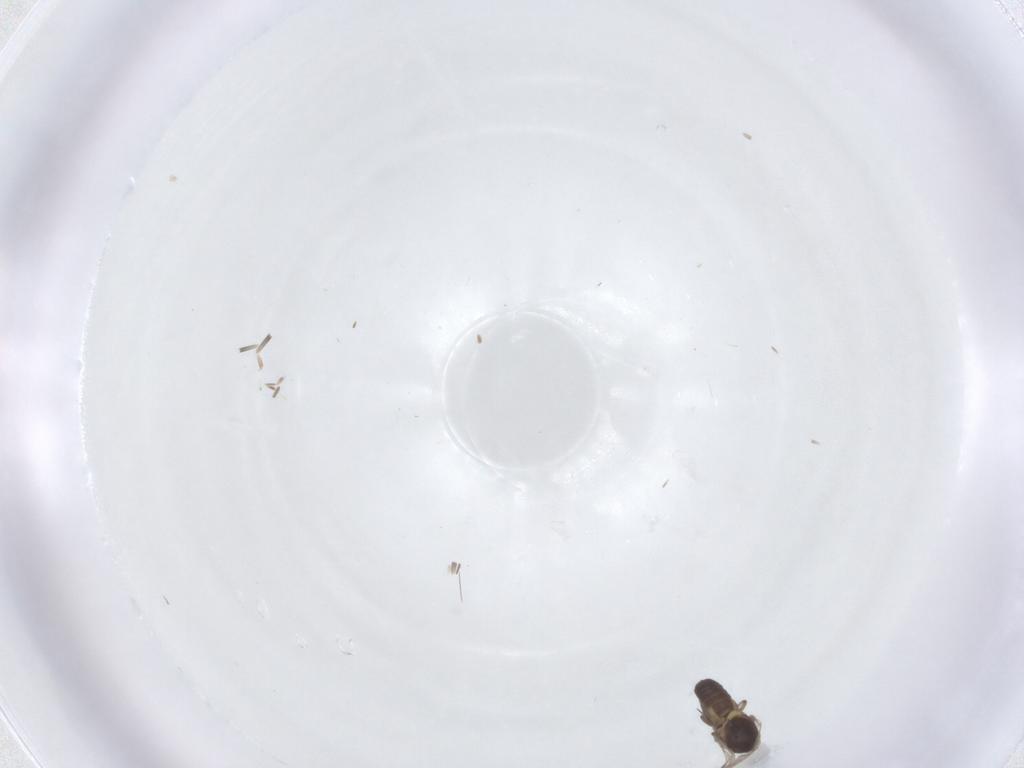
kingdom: Animalia
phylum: Arthropoda
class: Insecta
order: Diptera
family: Ceratopogonidae
